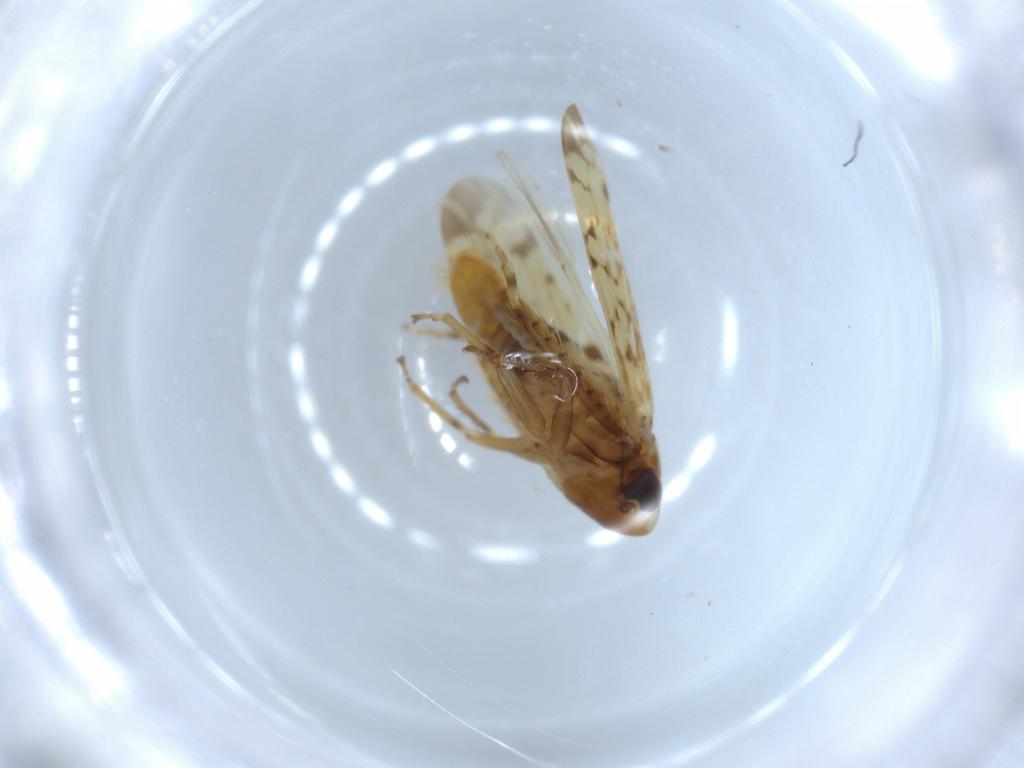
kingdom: Animalia
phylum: Arthropoda
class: Insecta
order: Hemiptera
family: Cicadellidae
